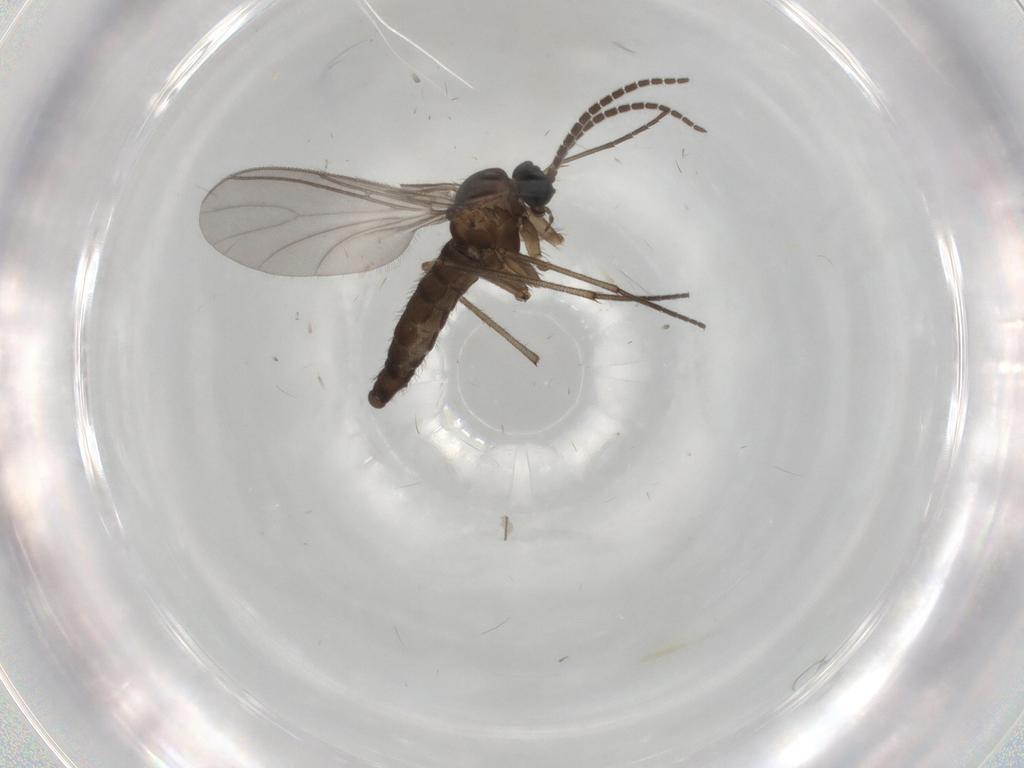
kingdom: Animalia
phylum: Arthropoda
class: Insecta
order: Diptera
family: Sciaridae
